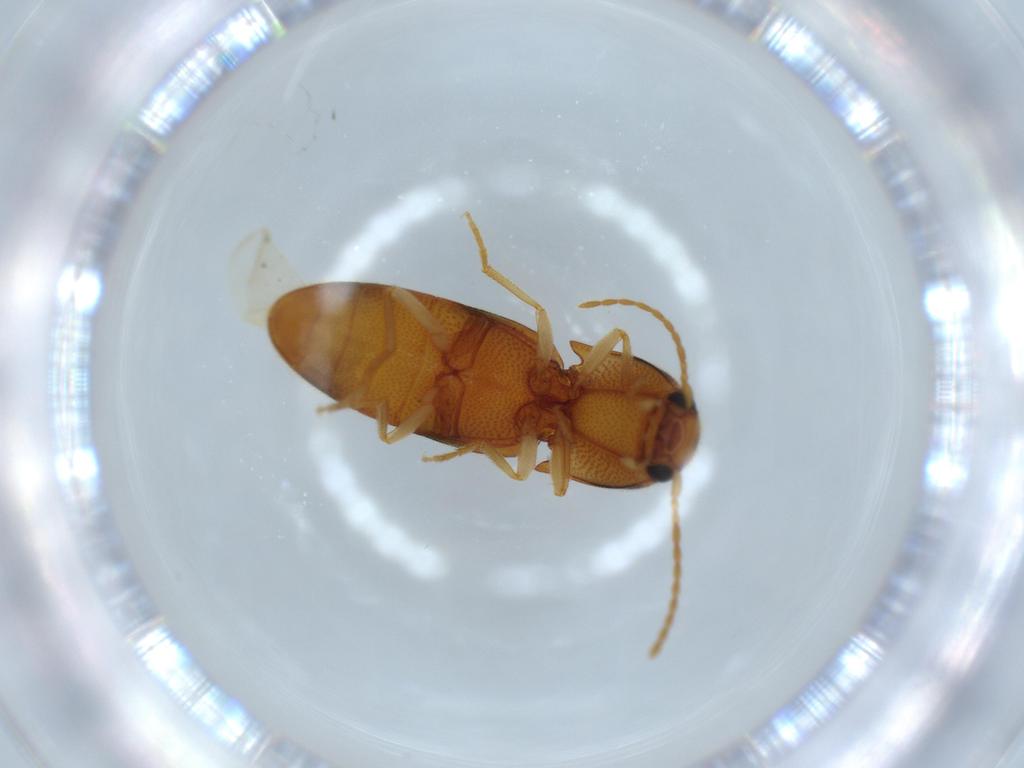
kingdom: Animalia
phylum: Arthropoda
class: Insecta
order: Coleoptera
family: Elateridae
